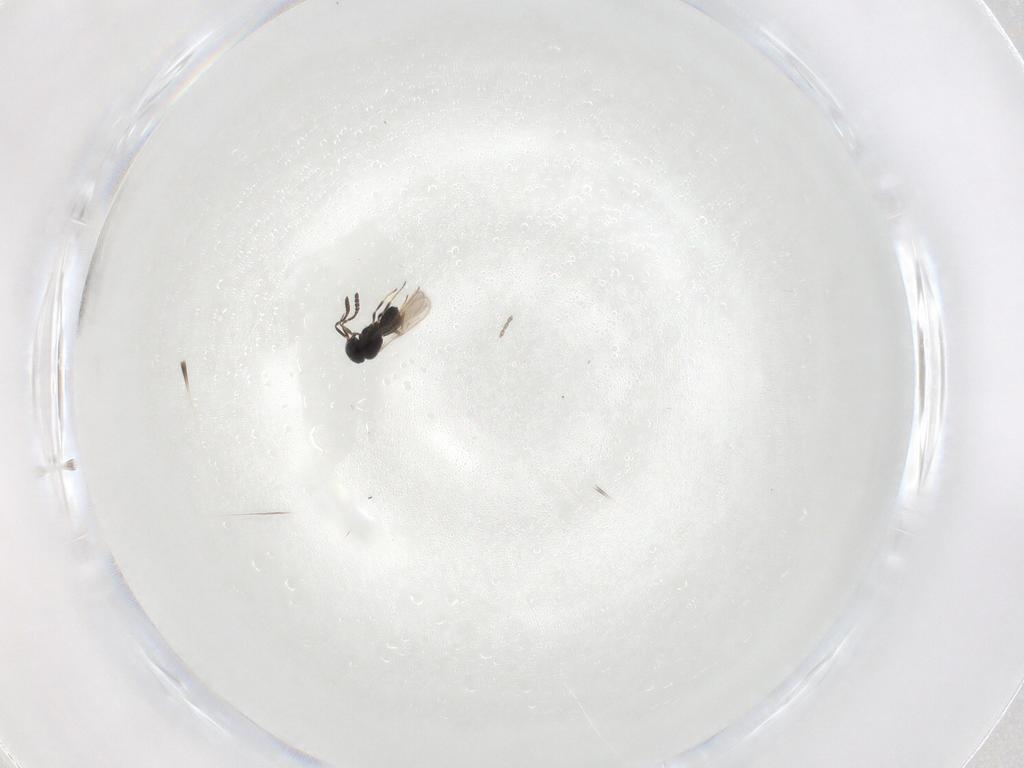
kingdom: Animalia
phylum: Arthropoda
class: Insecta
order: Hymenoptera
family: Scelionidae
